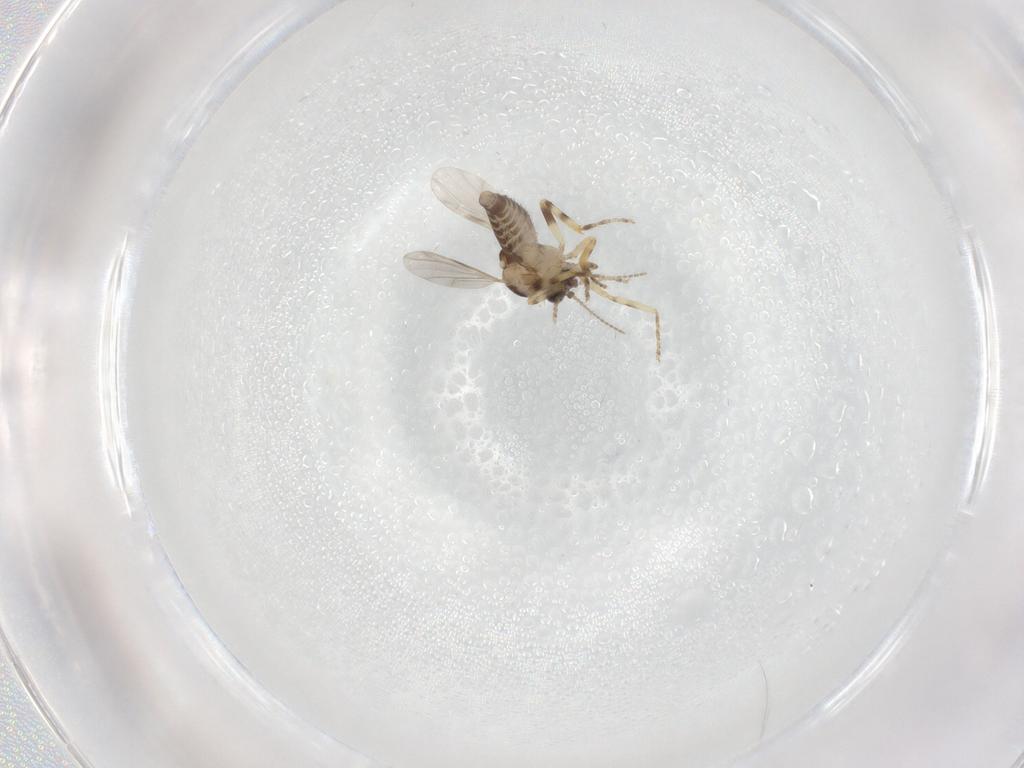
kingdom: Animalia
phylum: Arthropoda
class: Insecta
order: Diptera
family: Ceratopogonidae
